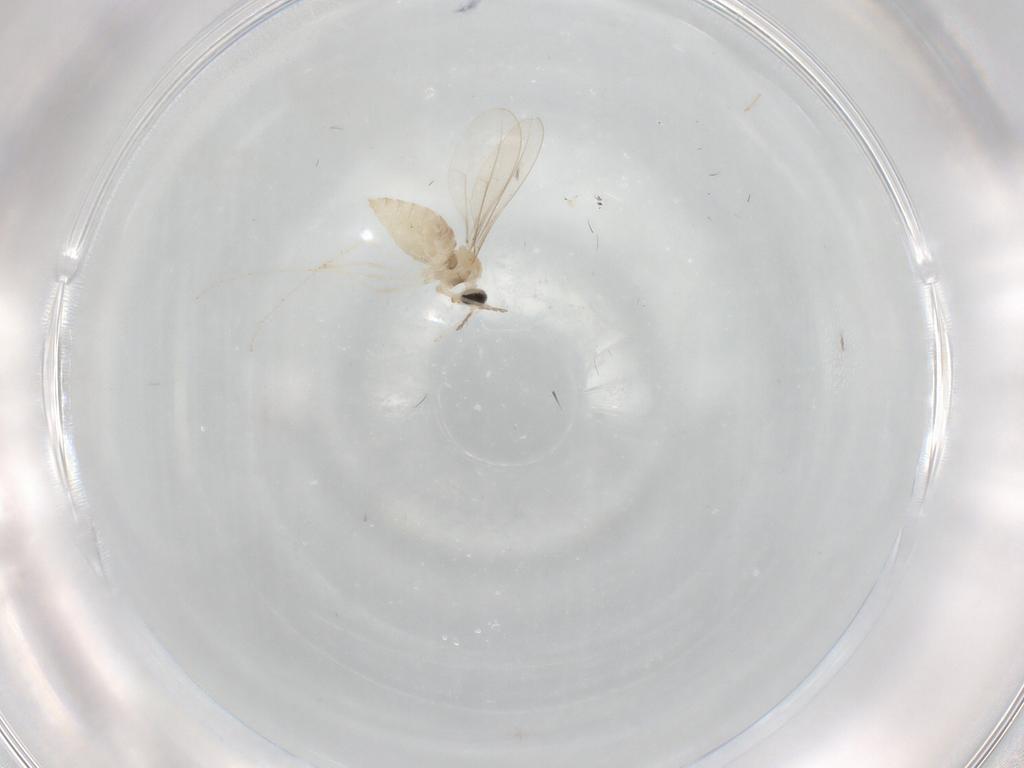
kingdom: Animalia
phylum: Arthropoda
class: Insecta
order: Diptera
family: Cecidomyiidae
